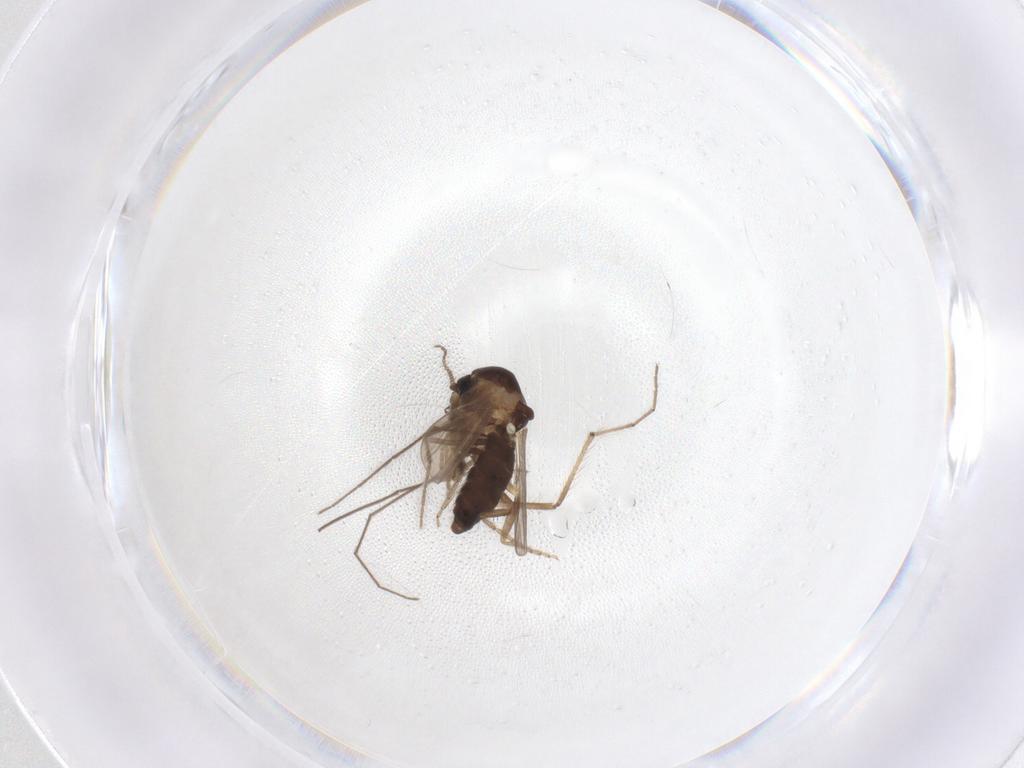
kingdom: Animalia
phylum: Arthropoda
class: Insecta
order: Diptera
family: Ceratopogonidae
